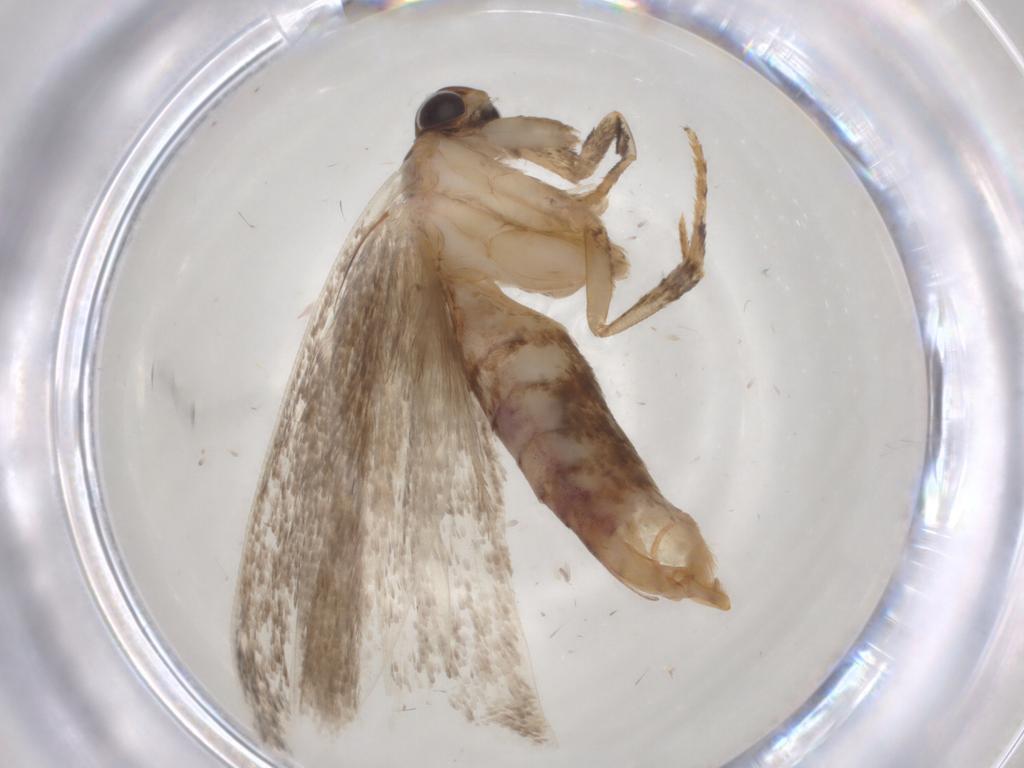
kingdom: Animalia
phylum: Arthropoda
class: Insecta
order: Lepidoptera
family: Gelechiidae
